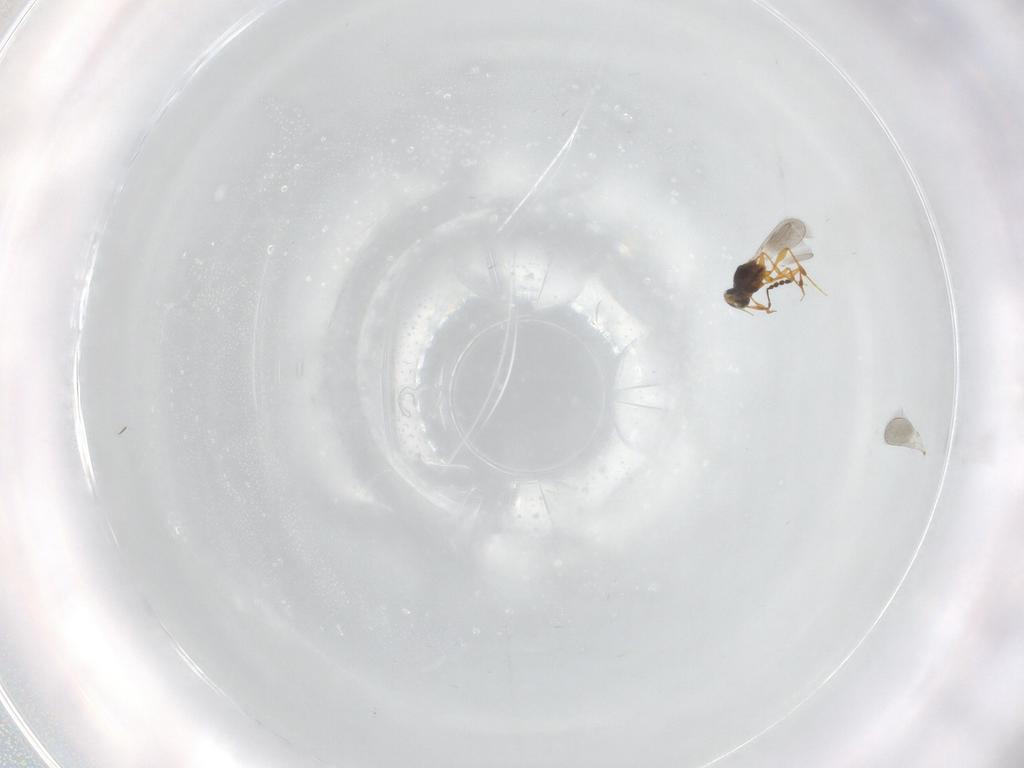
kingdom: Animalia
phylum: Arthropoda
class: Insecta
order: Hymenoptera
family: Platygastridae
